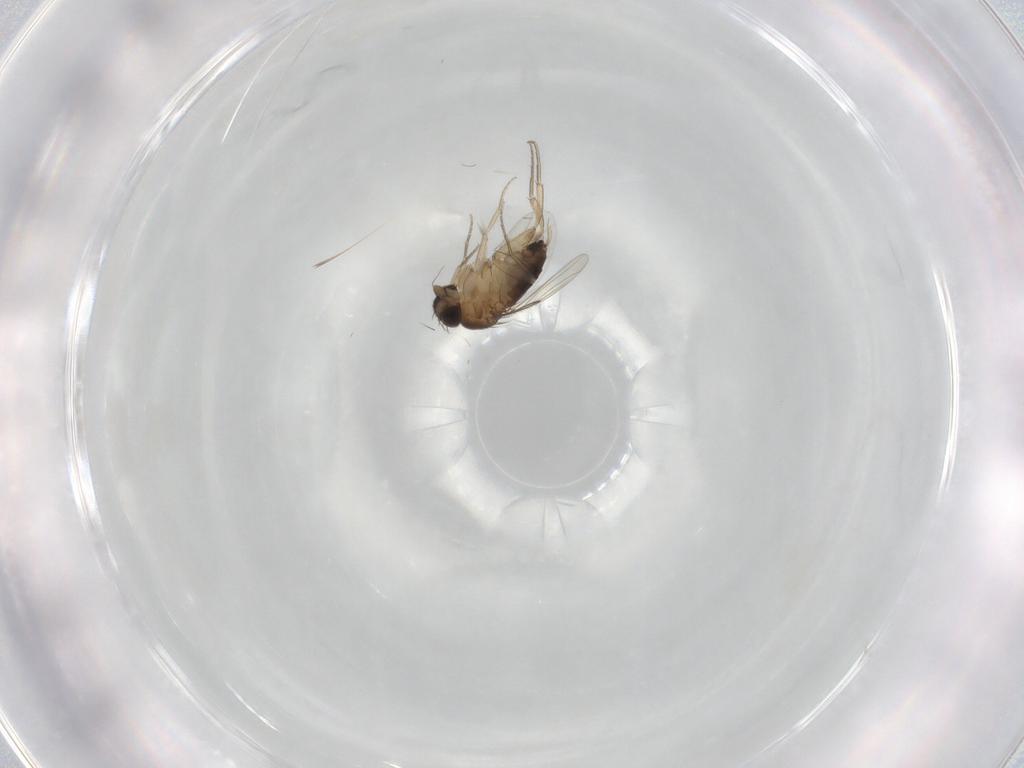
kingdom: Animalia
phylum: Arthropoda
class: Insecta
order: Diptera
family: Phoridae
